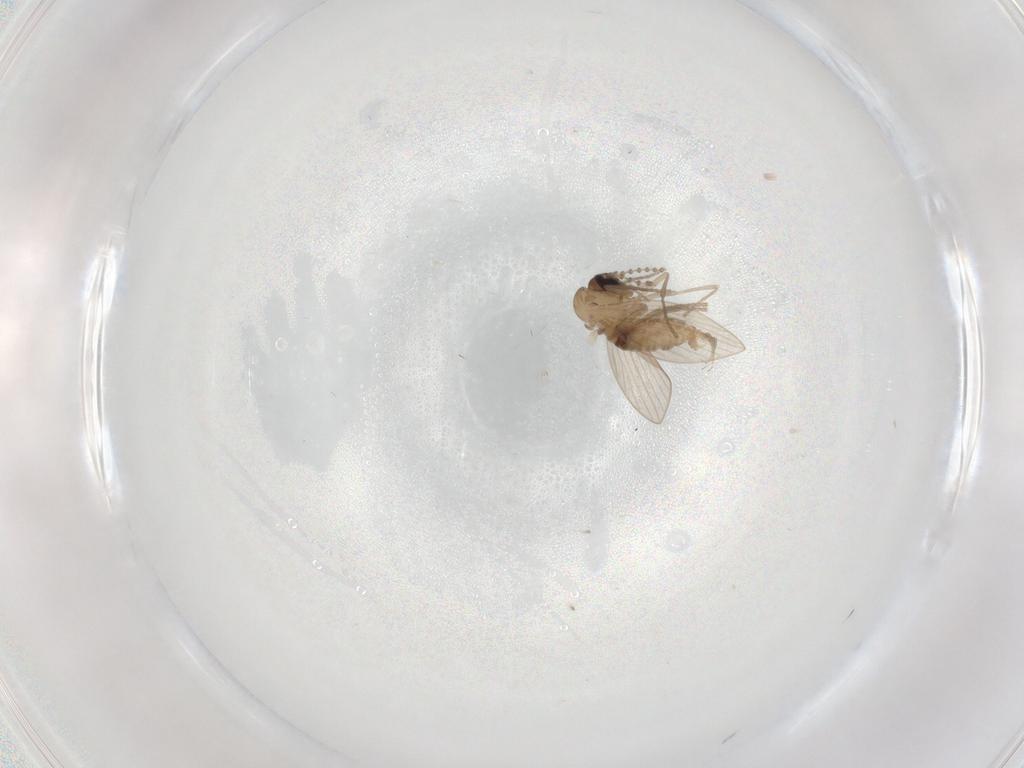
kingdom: Animalia
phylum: Arthropoda
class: Insecta
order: Diptera
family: Psychodidae
